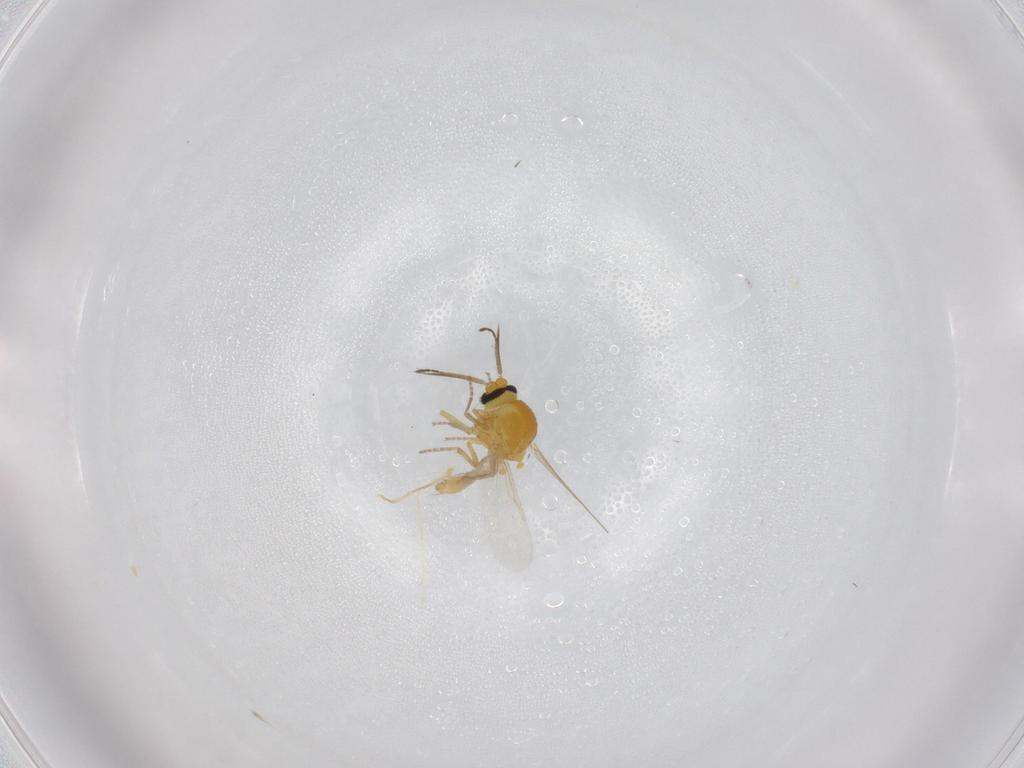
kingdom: Animalia
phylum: Arthropoda
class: Insecta
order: Diptera
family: Ceratopogonidae
